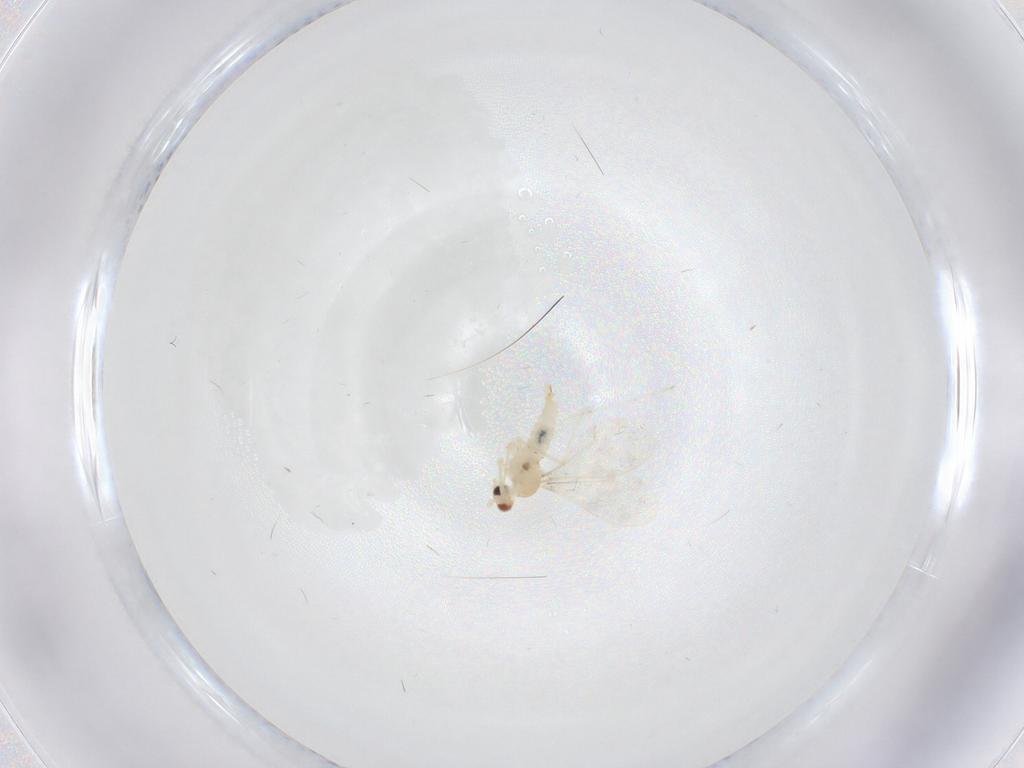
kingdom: Animalia
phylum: Arthropoda
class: Insecta
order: Diptera
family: Cecidomyiidae
